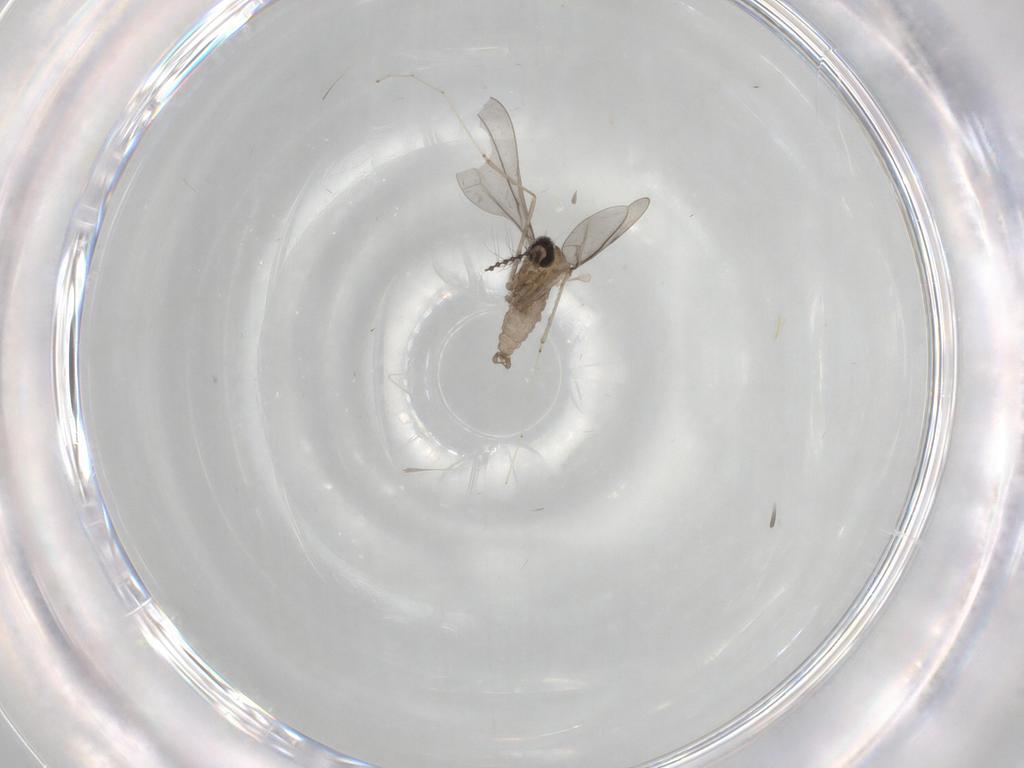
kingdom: Animalia
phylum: Arthropoda
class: Insecta
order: Diptera
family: Cecidomyiidae
